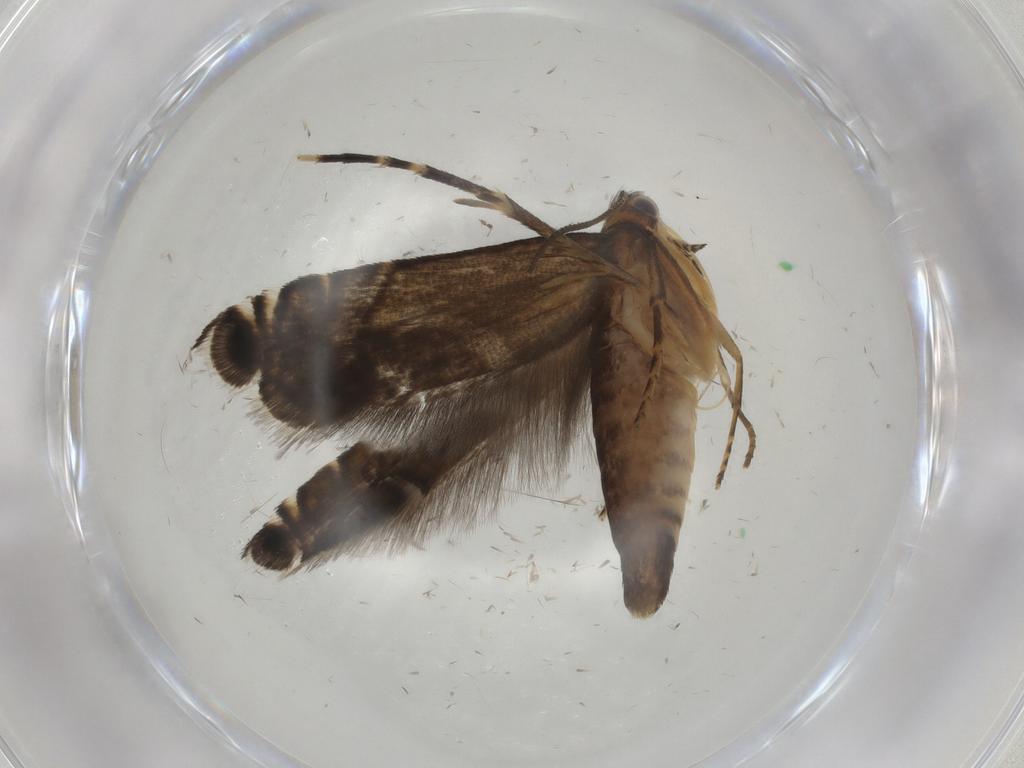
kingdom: Animalia
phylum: Arthropoda
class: Insecta
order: Lepidoptera
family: Glyphipterigidae
